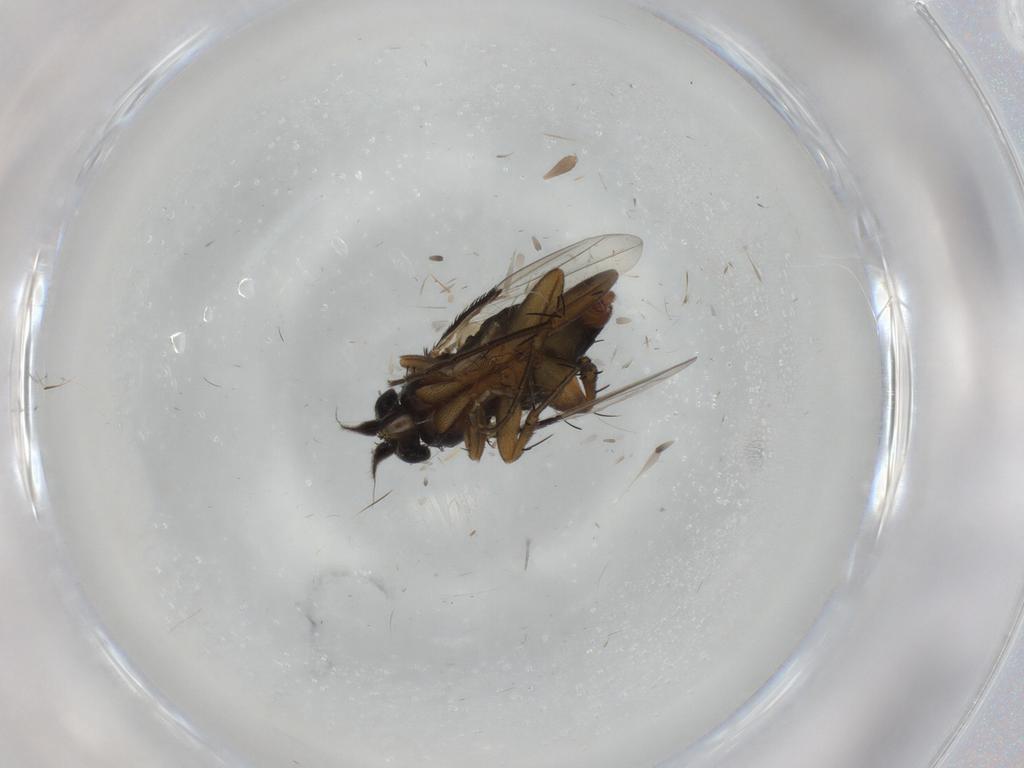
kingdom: Animalia
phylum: Arthropoda
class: Insecta
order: Diptera
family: Phoridae
